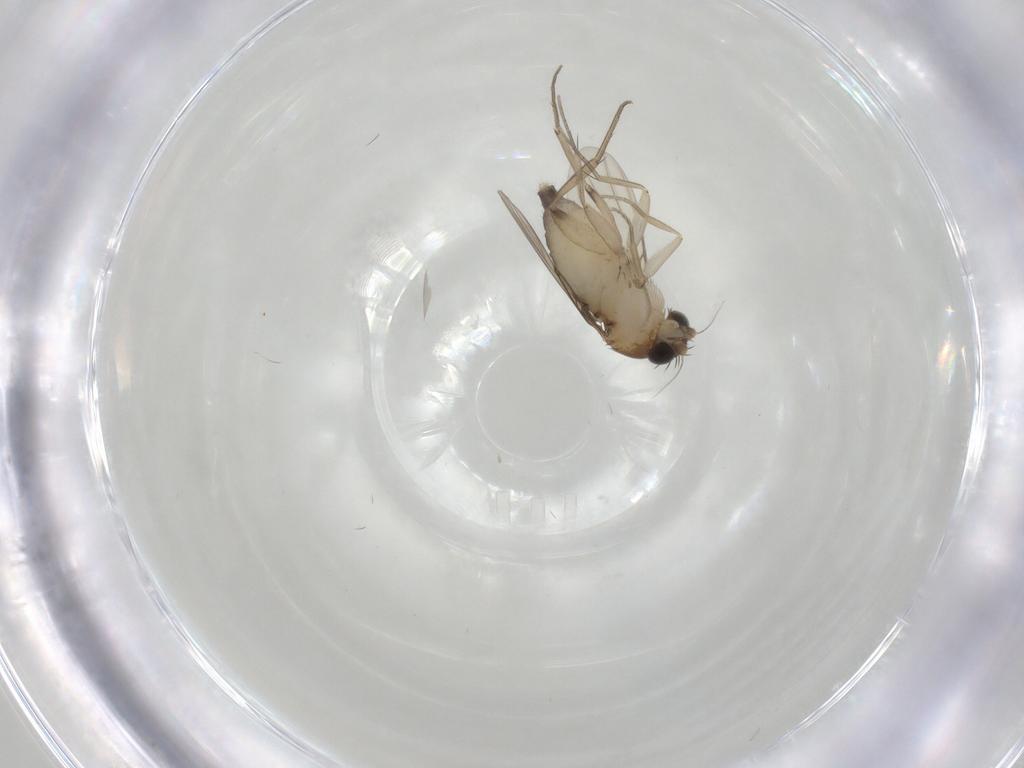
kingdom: Animalia
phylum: Arthropoda
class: Insecta
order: Diptera
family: Phoridae
